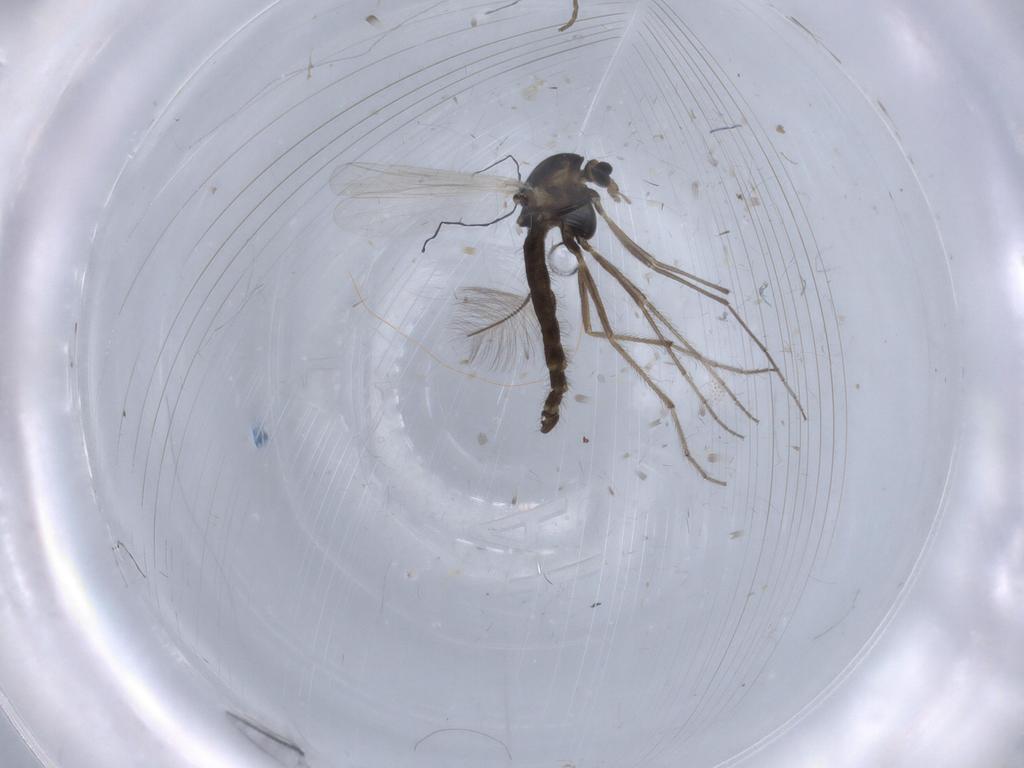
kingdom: Animalia
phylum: Arthropoda
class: Insecta
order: Diptera
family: Chironomidae
